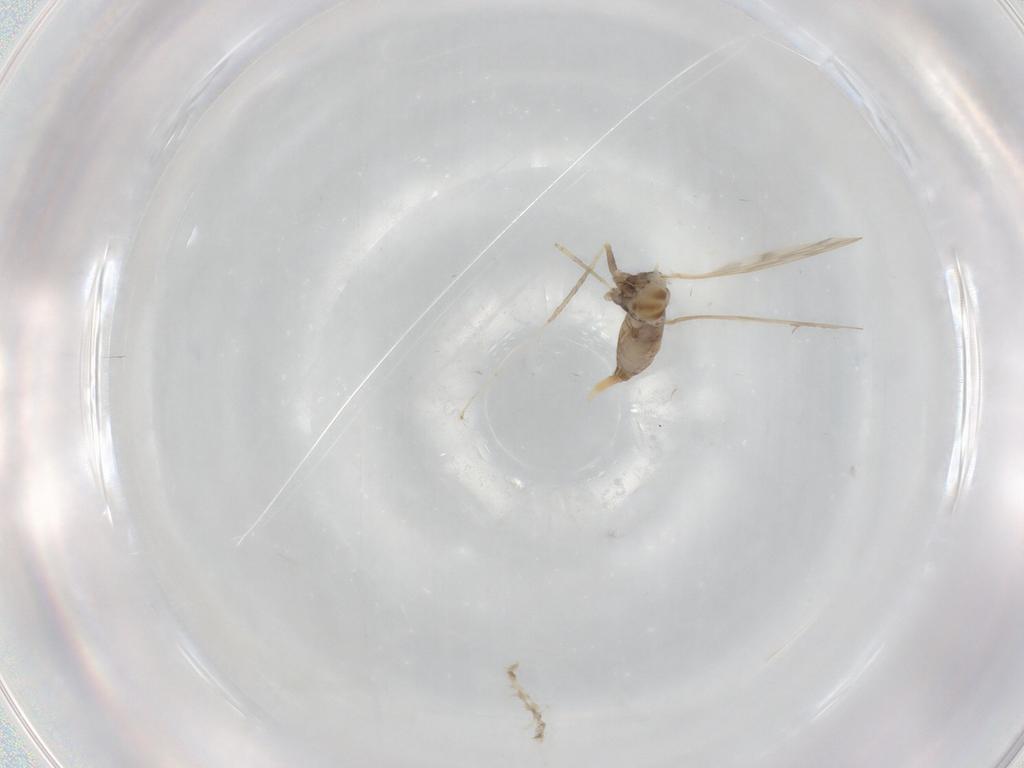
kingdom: Animalia
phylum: Arthropoda
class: Insecta
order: Diptera
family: Cecidomyiidae
